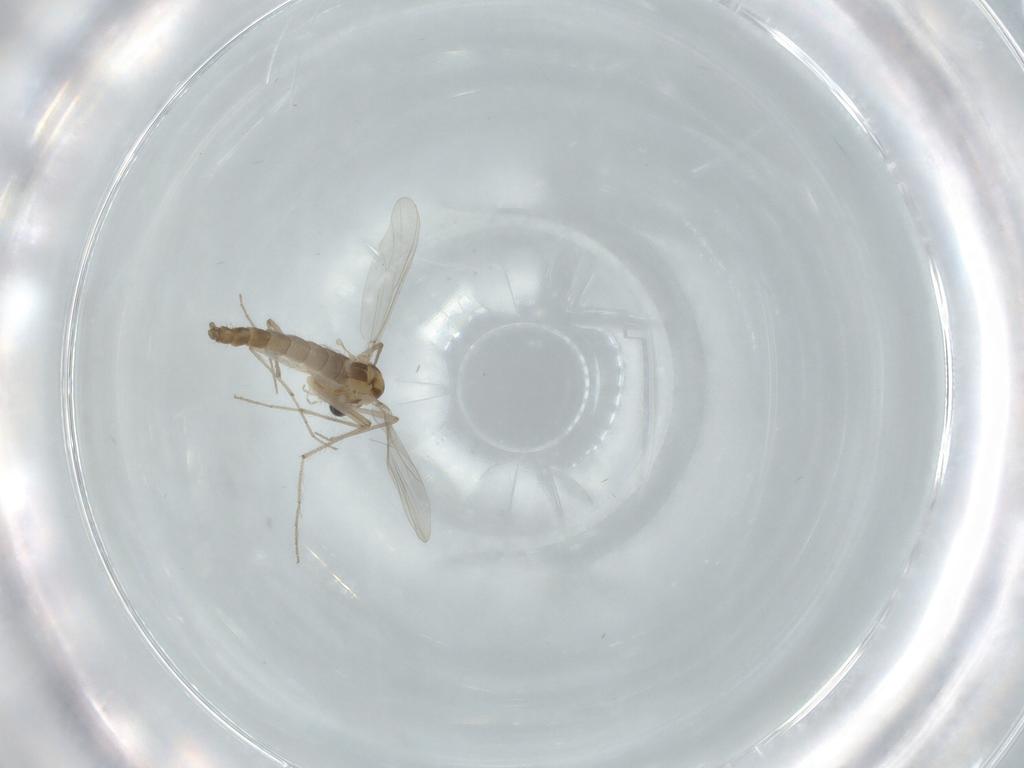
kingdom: Animalia
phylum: Arthropoda
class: Insecta
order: Diptera
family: Chironomidae
